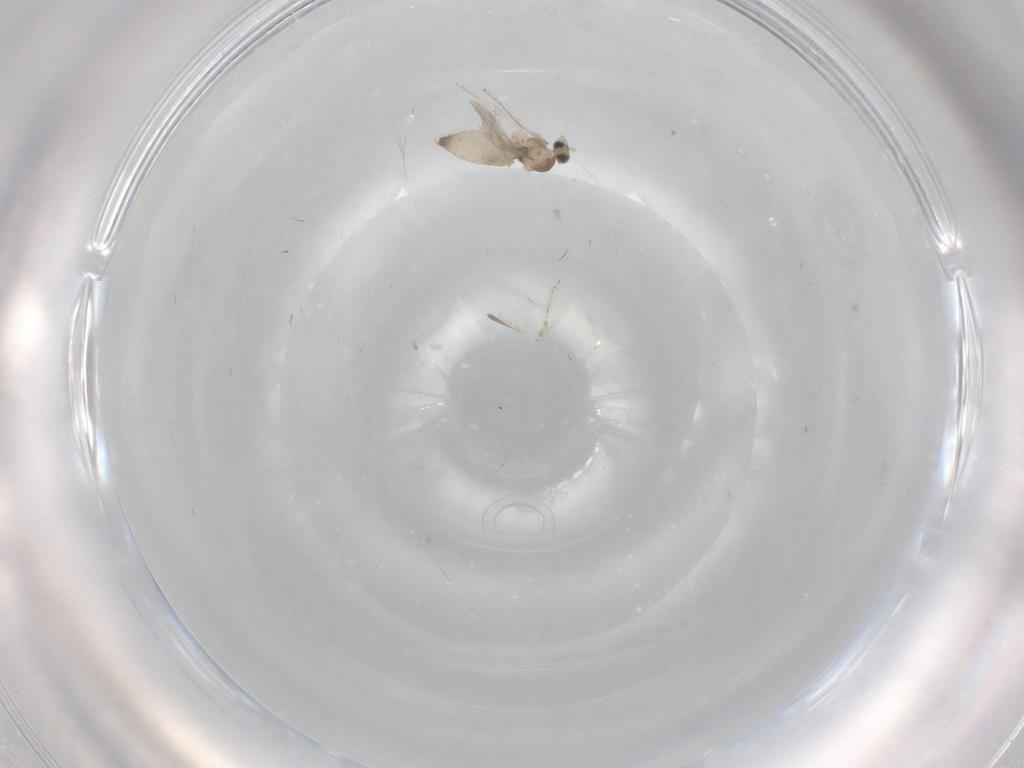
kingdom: Animalia
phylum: Arthropoda
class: Insecta
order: Diptera
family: Cecidomyiidae
